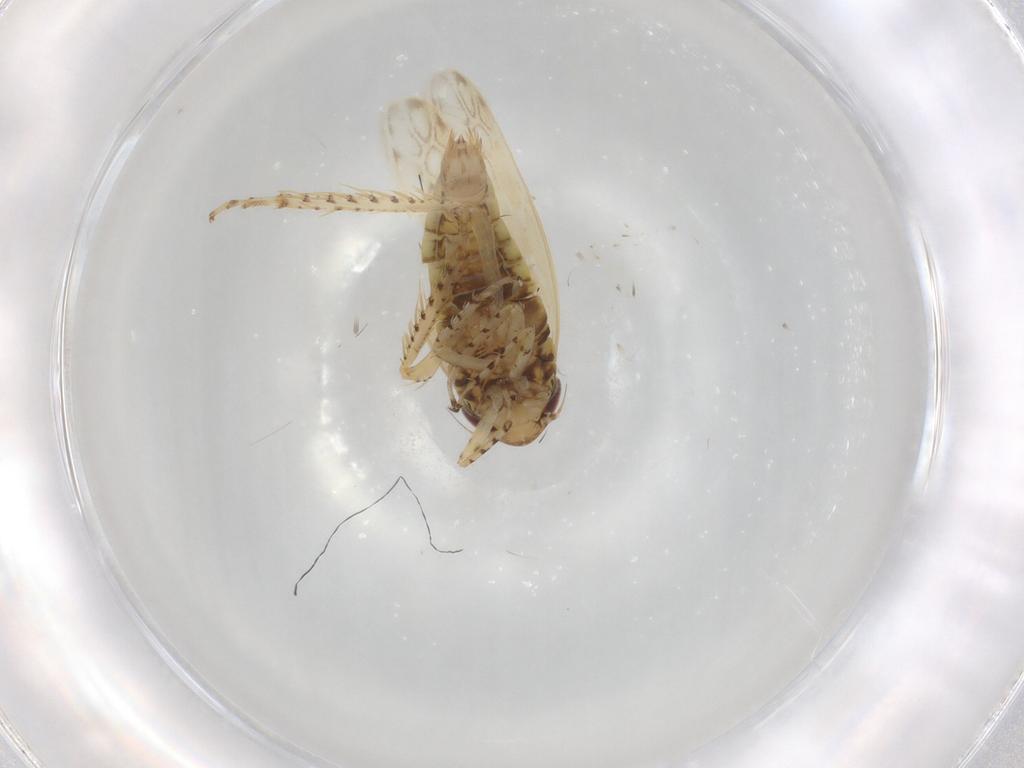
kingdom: Animalia
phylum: Arthropoda
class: Insecta
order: Hemiptera
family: Cicadellidae
